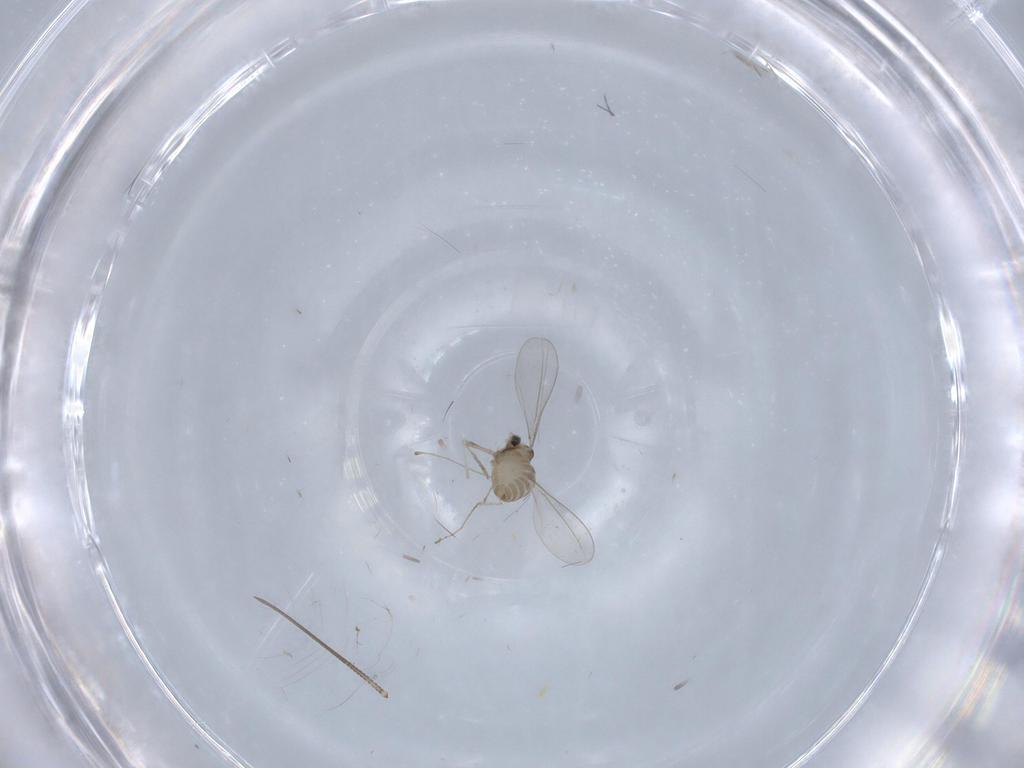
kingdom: Animalia
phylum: Arthropoda
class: Insecta
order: Diptera
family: Cecidomyiidae
